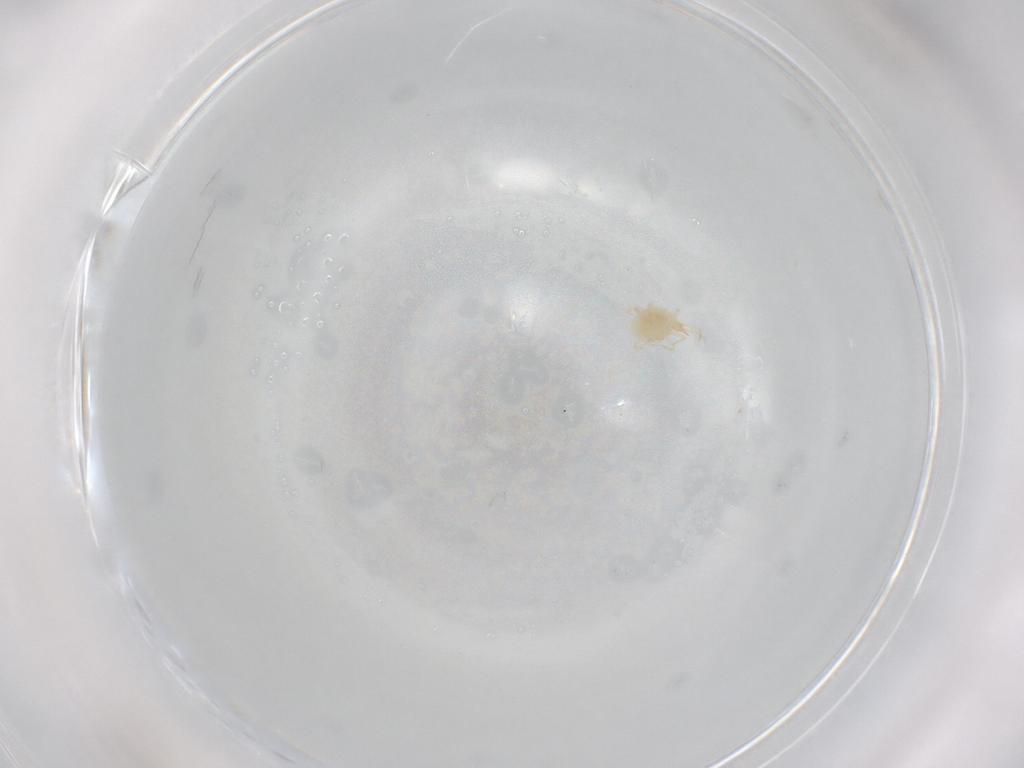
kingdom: Animalia
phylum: Arthropoda
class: Arachnida
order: Trombidiformes
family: Cunaxidae
